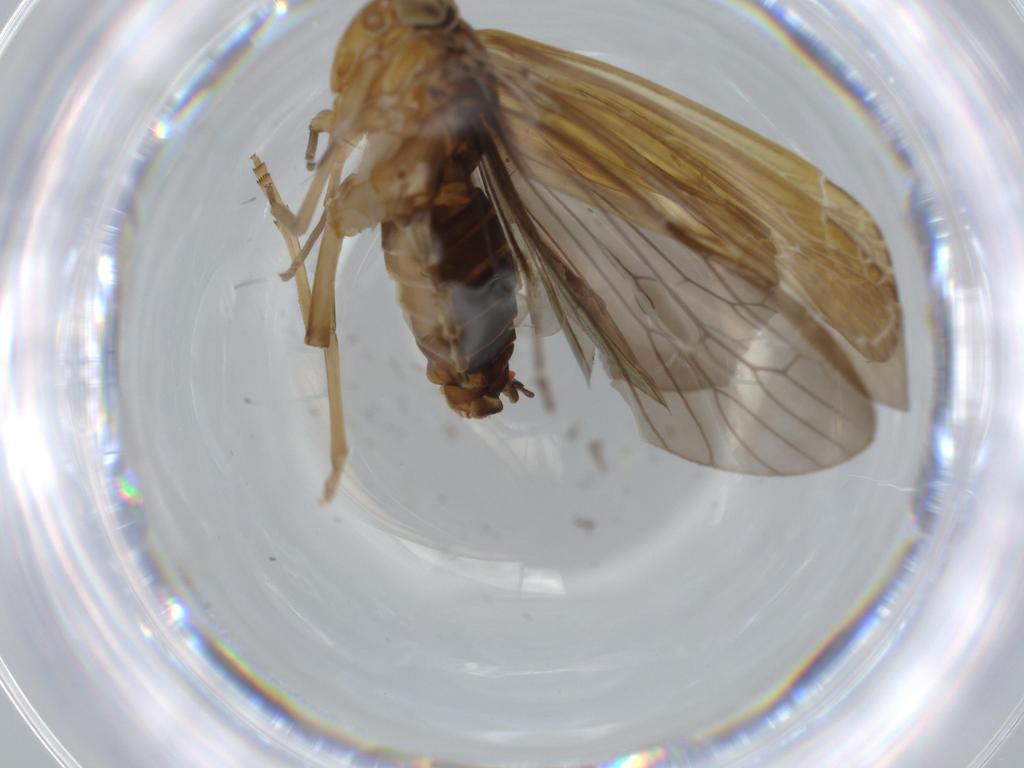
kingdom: Animalia
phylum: Arthropoda
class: Insecta
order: Hemiptera
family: Achilidae
